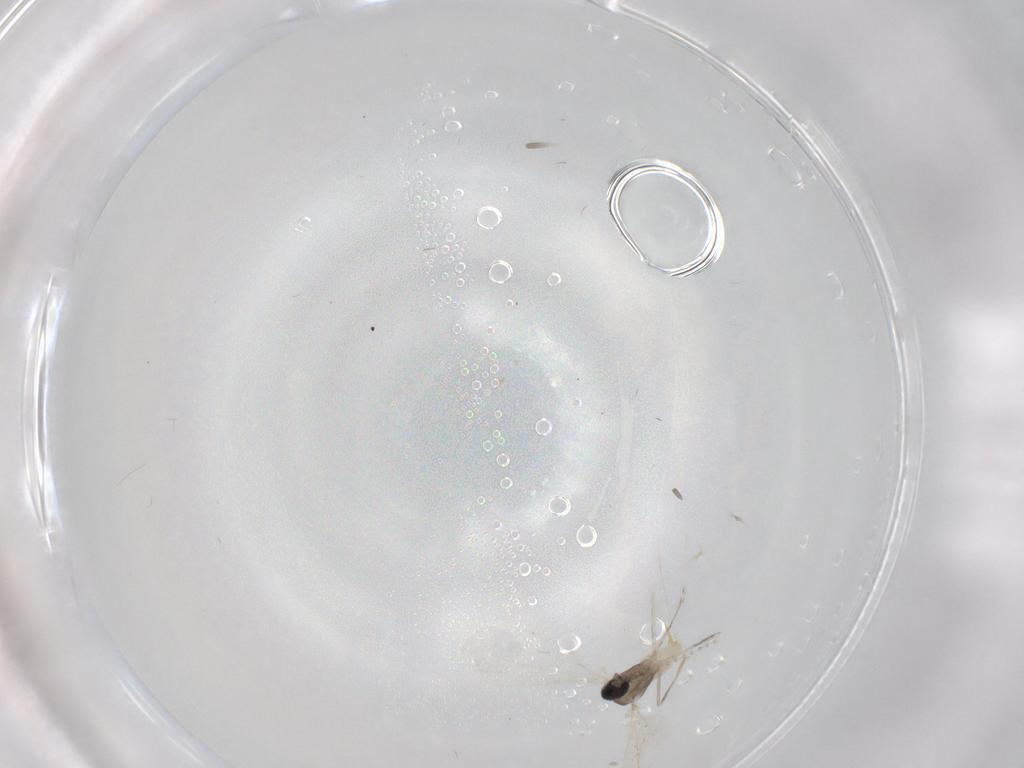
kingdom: Animalia
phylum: Arthropoda
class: Insecta
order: Diptera
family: Cecidomyiidae
